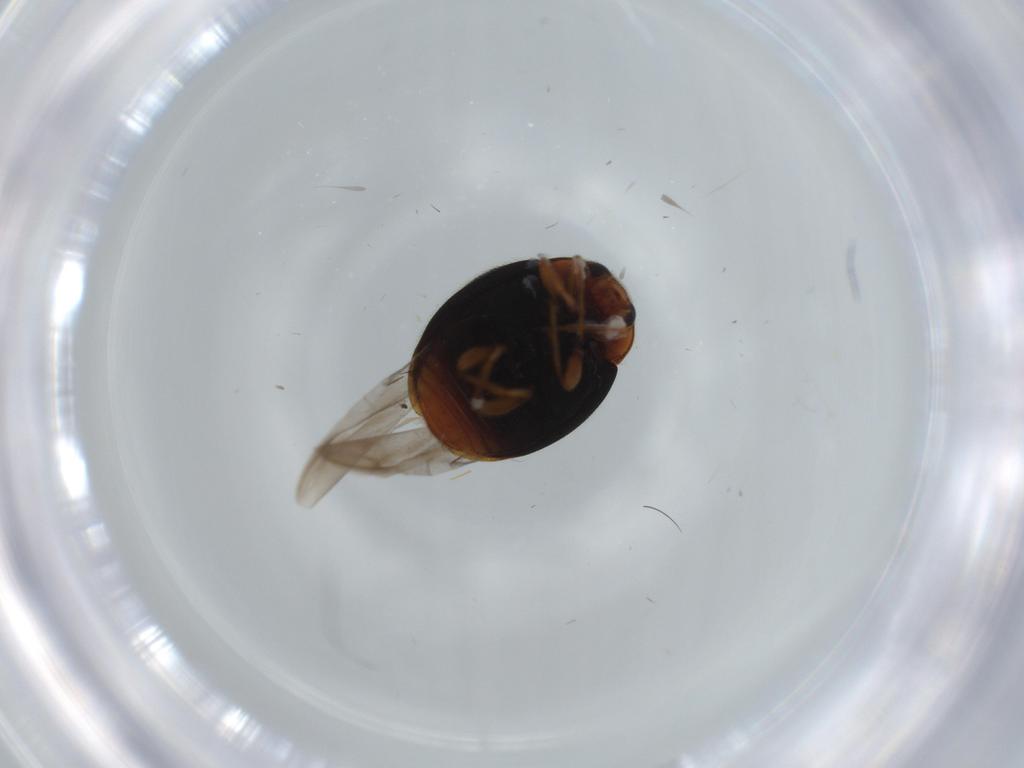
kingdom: Animalia
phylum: Arthropoda
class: Insecta
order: Coleoptera
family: Coccinellidae
